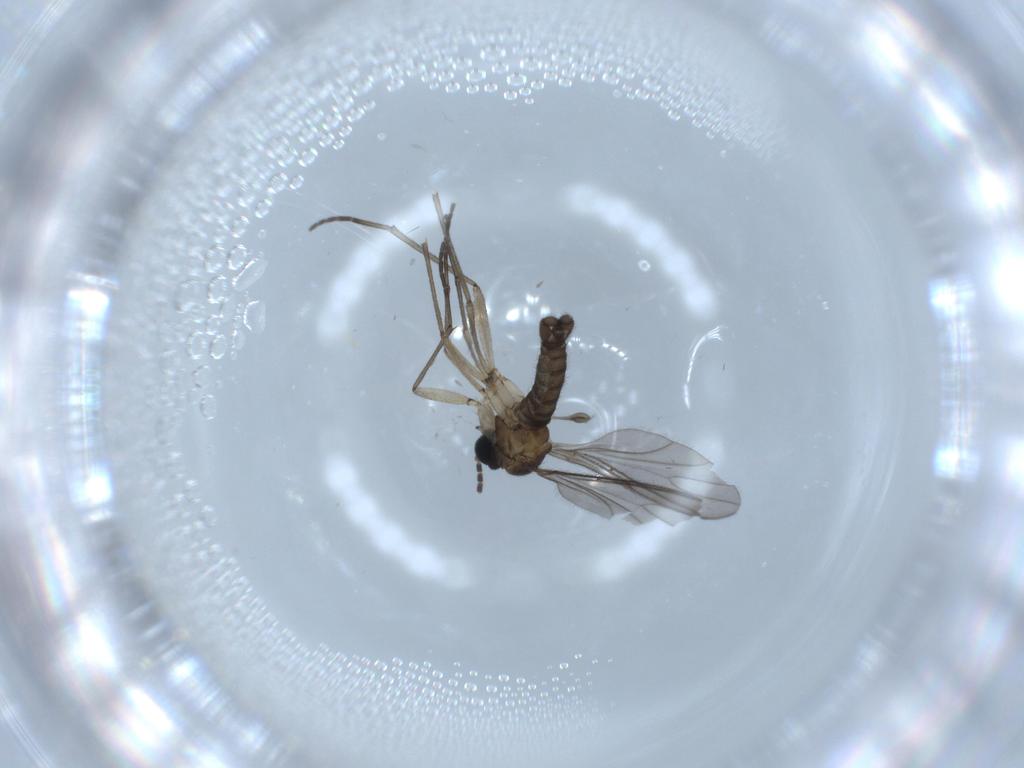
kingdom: Animalia
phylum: Arthropoda
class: Insecta
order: Diptera
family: Sciaridae
